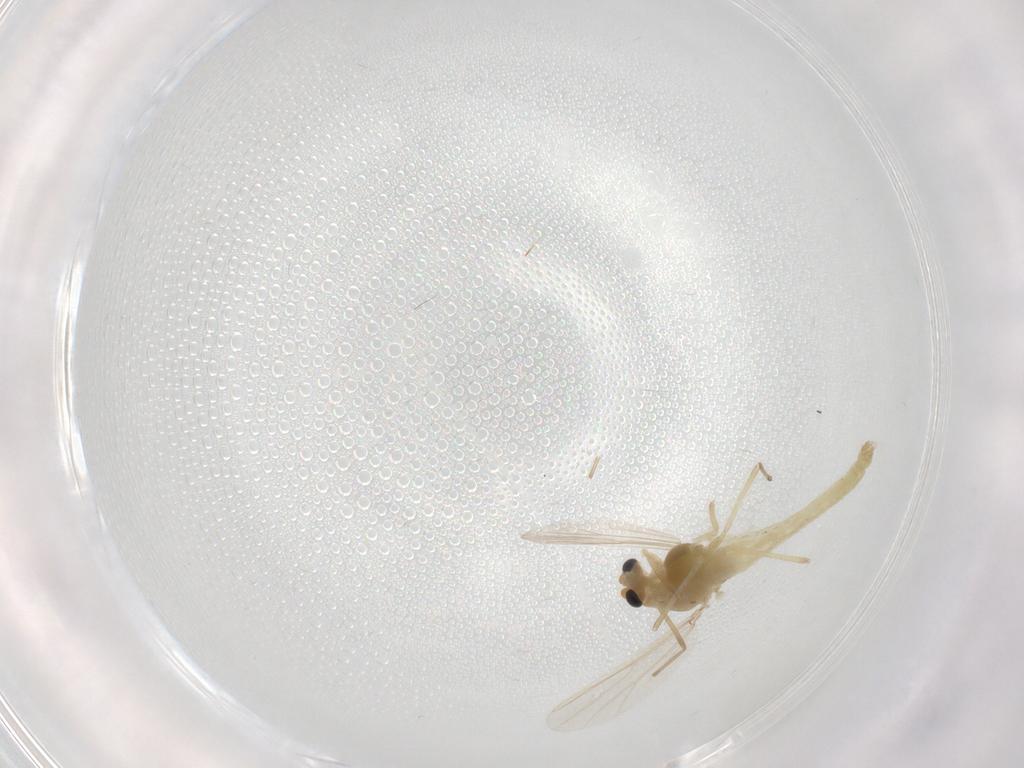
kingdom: Animalia
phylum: Arthropoda
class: Insecta
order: Diptera
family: Chironomidae
